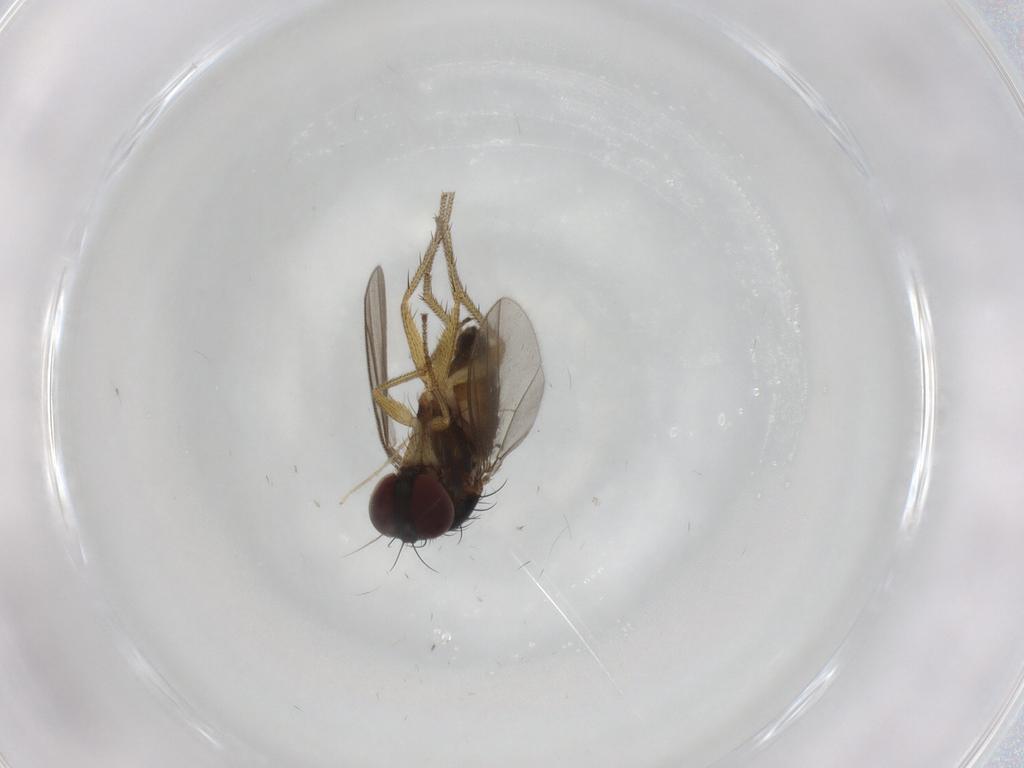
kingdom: Animalia
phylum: Arthropoda
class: Insecta
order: Diptera
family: Dolichopodidae
